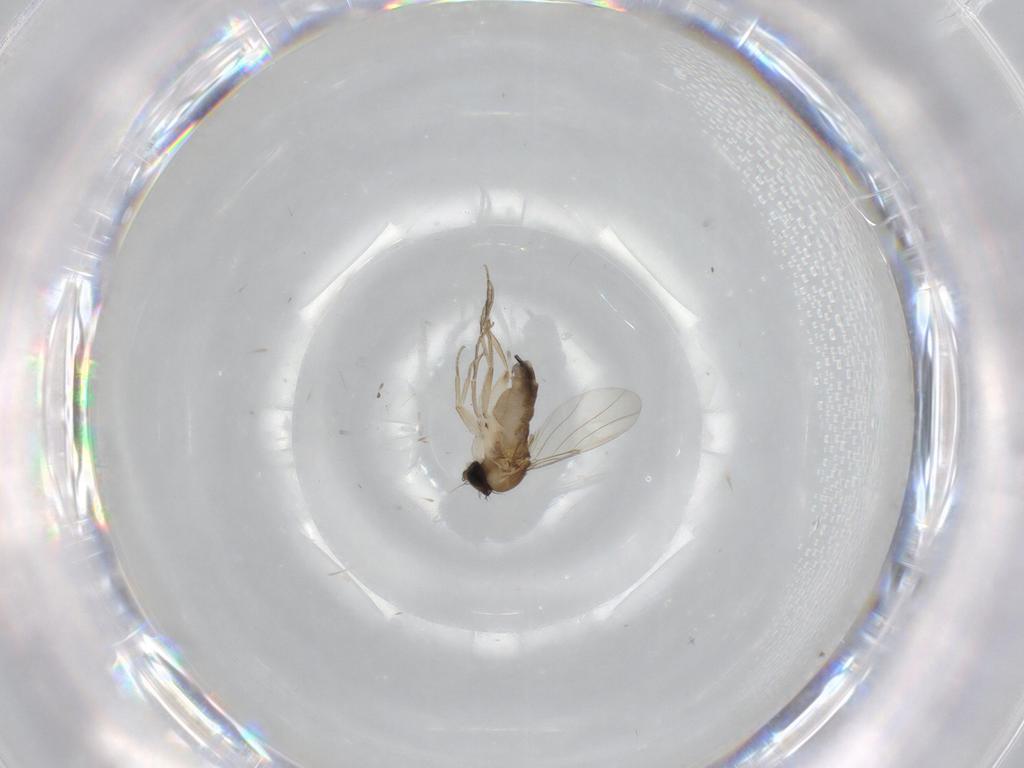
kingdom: Animalia
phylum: Arthropoda
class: Insecta
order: Diptera
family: Phoridae
